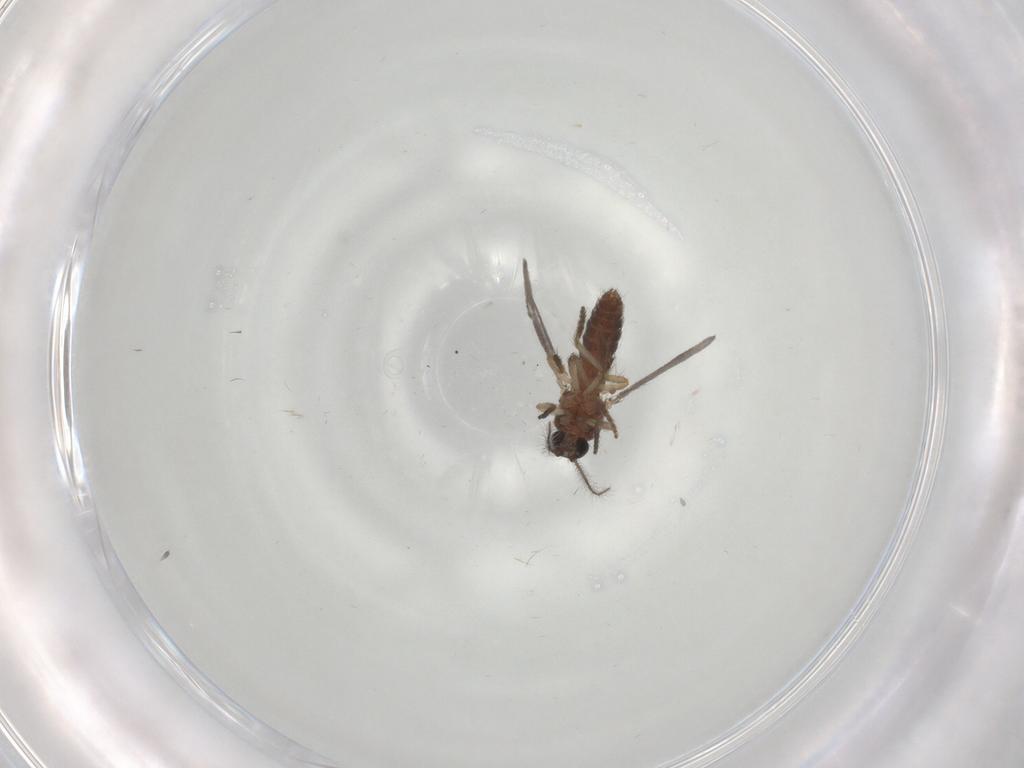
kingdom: Animalia
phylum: Arthropoda
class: Insecta
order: Diptera
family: Ceratopogonidae
